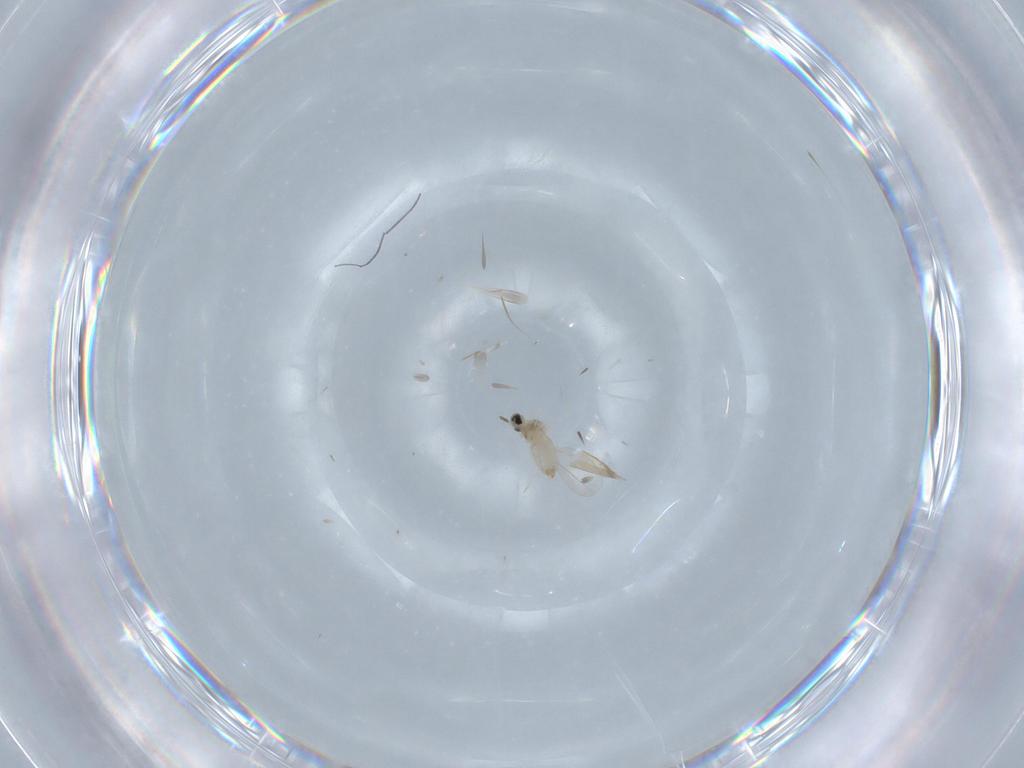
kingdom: Animalia
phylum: Arthropoda
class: Insecta
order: Diptera
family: Cecidomyiidae
